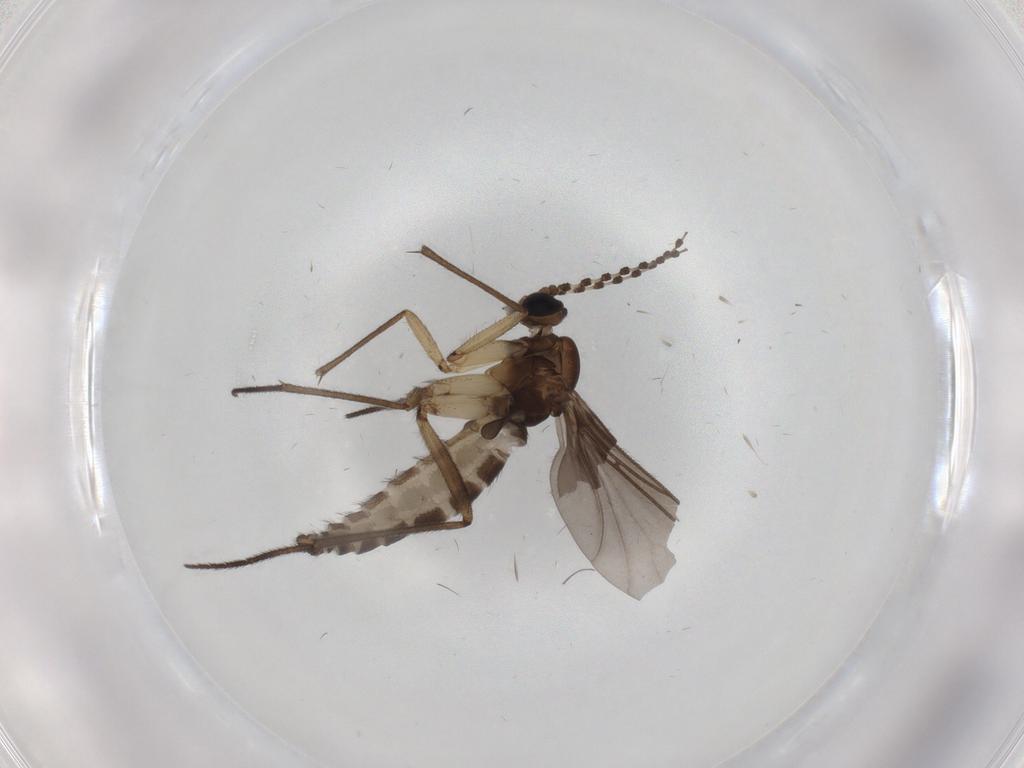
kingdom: Animalia
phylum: Arthropoda
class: Insecta
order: Diptera
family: Sciaridae
